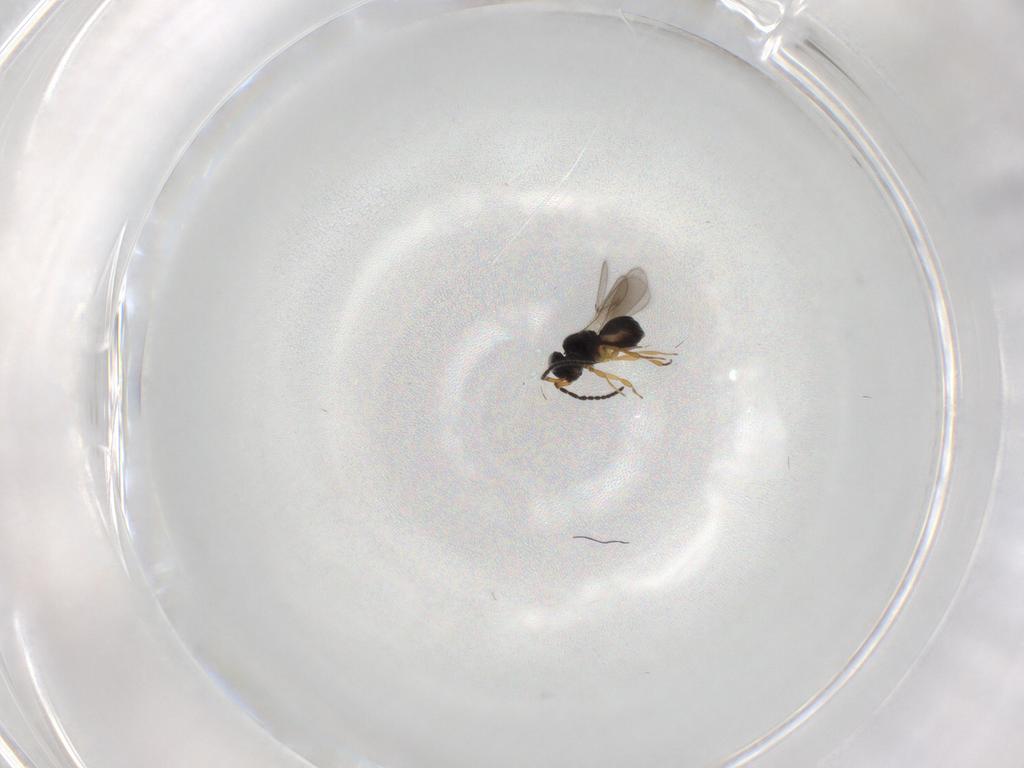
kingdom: Animalia
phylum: Arthropoda
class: Insecta
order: Hymenoptera
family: Scelionidae
